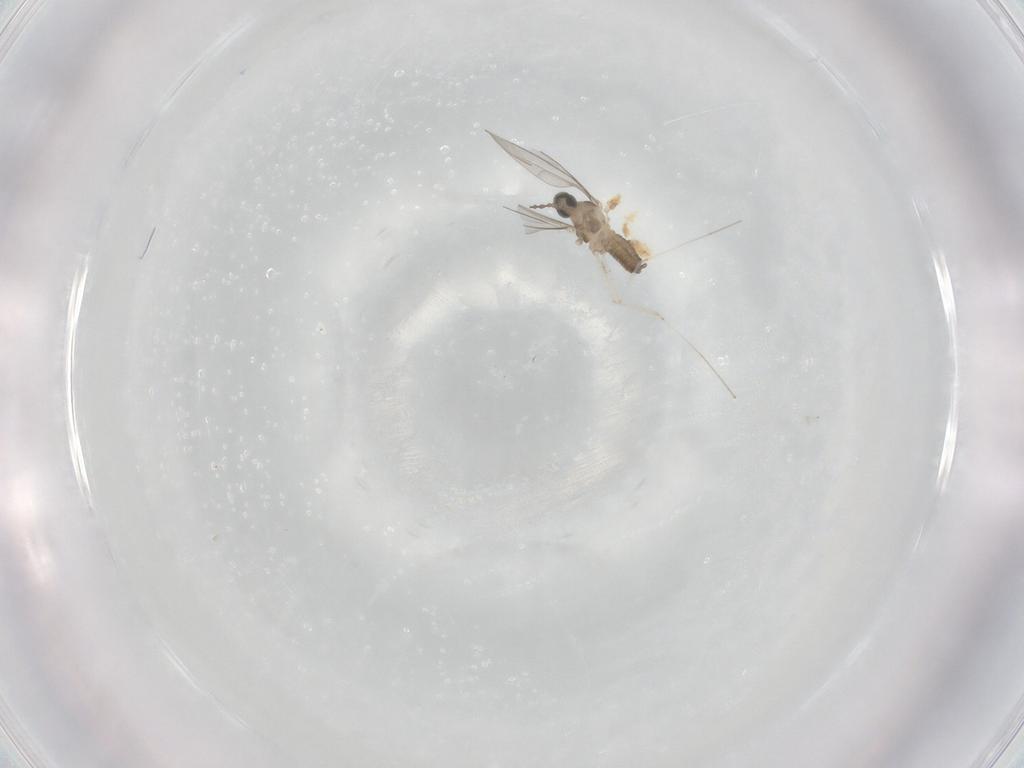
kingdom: Animalia
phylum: Arthropoda
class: Insecta
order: Diptera
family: Cecidomyiidae
